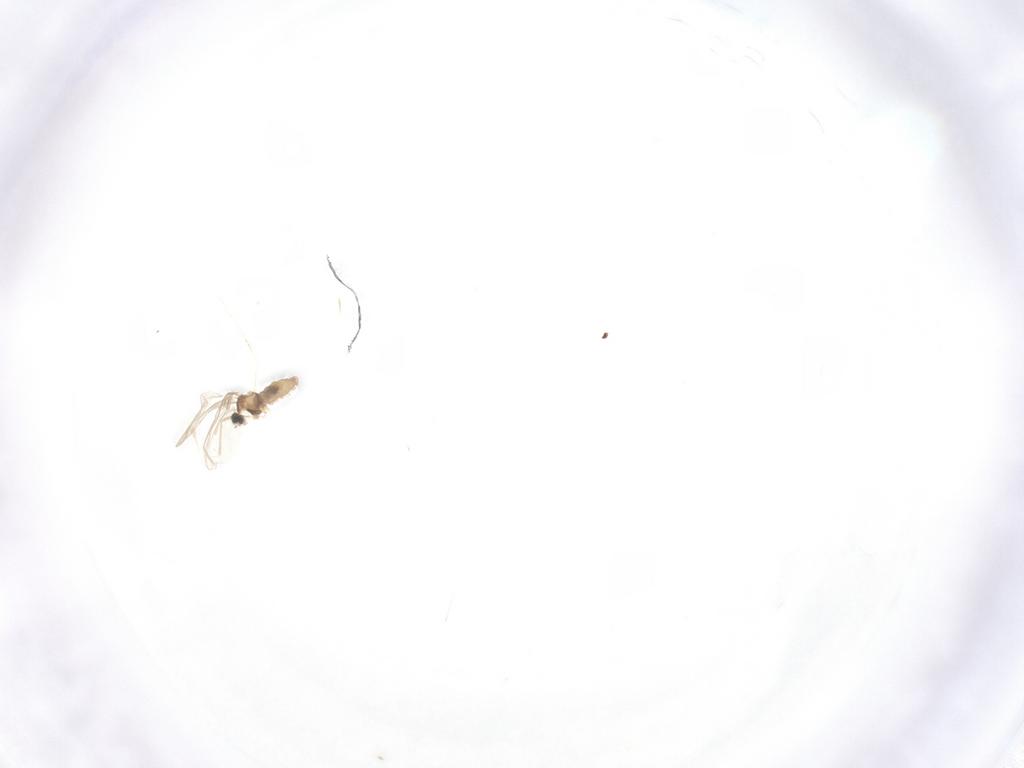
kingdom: Animalia
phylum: Arthropoda
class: Insecta
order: Diptera
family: Cecidomyiidae
